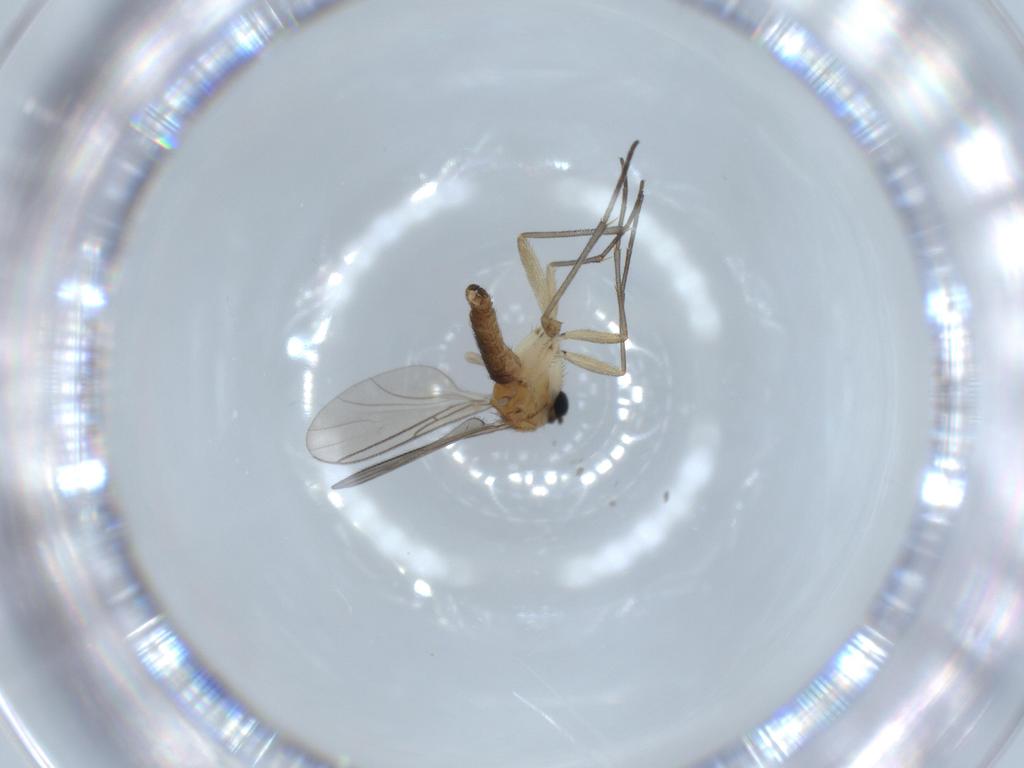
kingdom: Animalia
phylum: Arthropoda
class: Insecta
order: Diptera
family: Sciaridae
